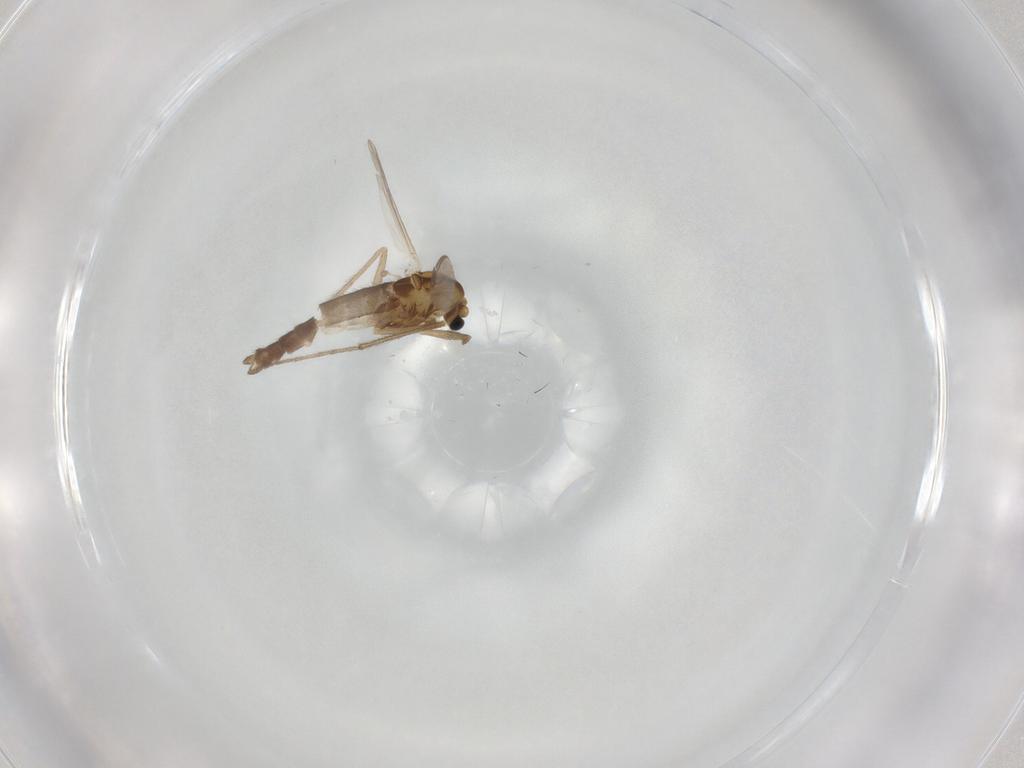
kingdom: Animalia
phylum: Arthropoda
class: Insecta
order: Diptera
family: Chironomidae
